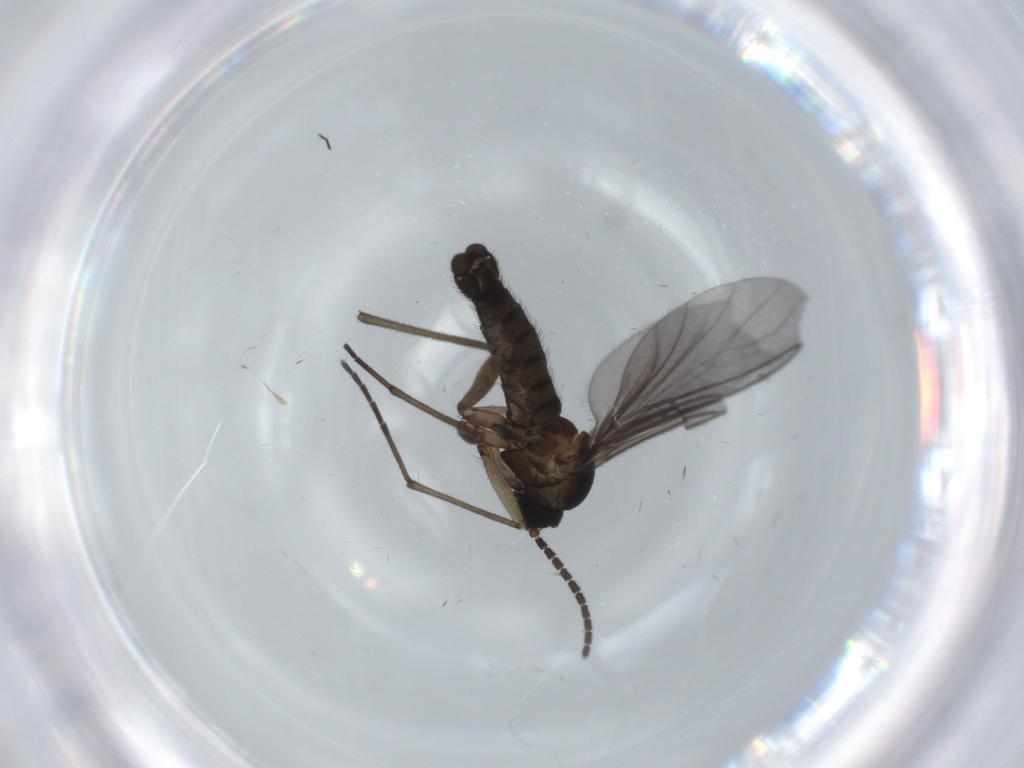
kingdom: Animalia
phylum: Arthropoda
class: Insecta
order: Diptera
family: Sciaridae
